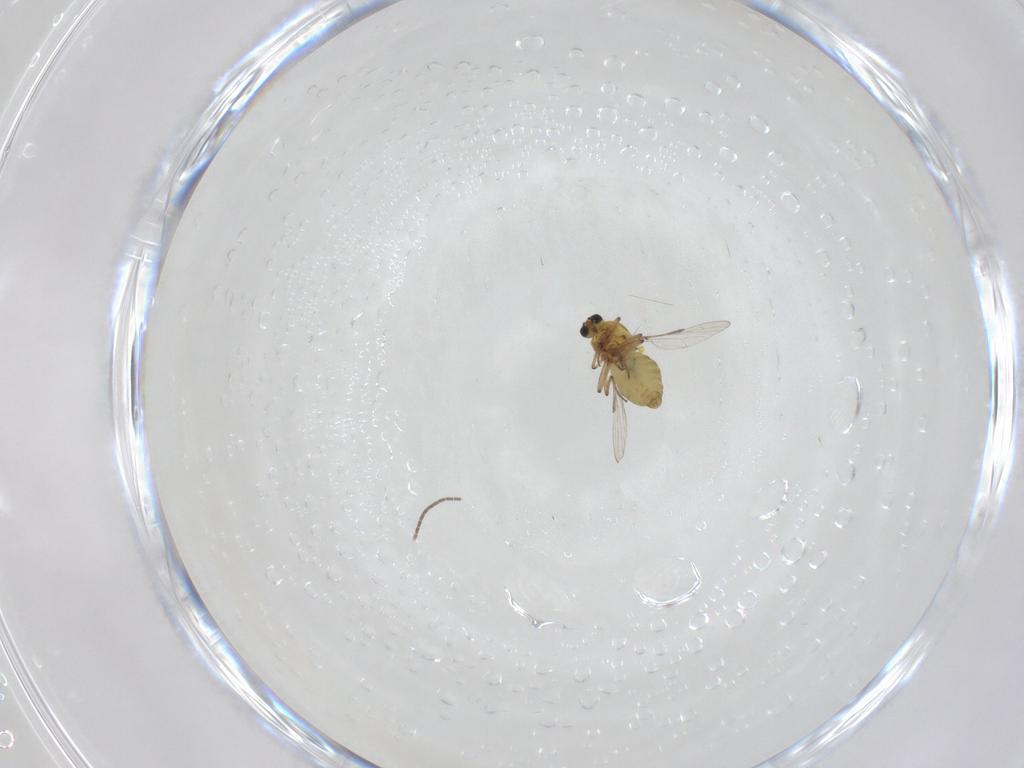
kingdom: Animalia
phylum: Arthropoda
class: Insecta
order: Diptera
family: Ceratopogonidae
